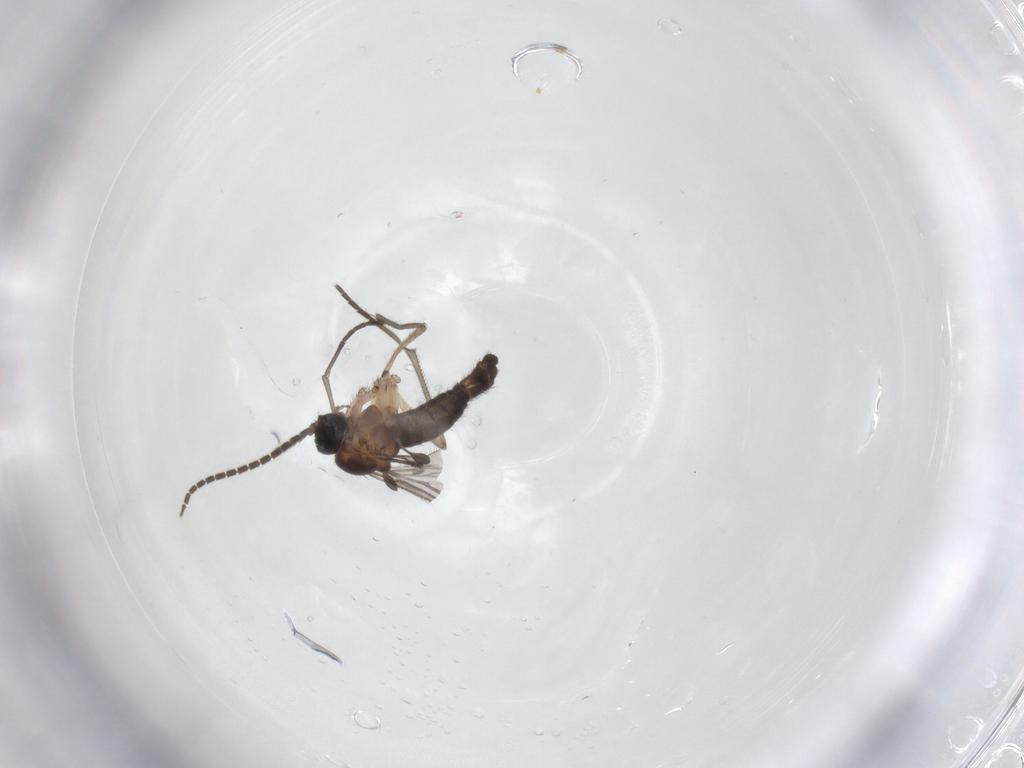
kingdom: Animalia
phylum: Arthropoda
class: Insecta
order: Diptera
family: Sciaridae
